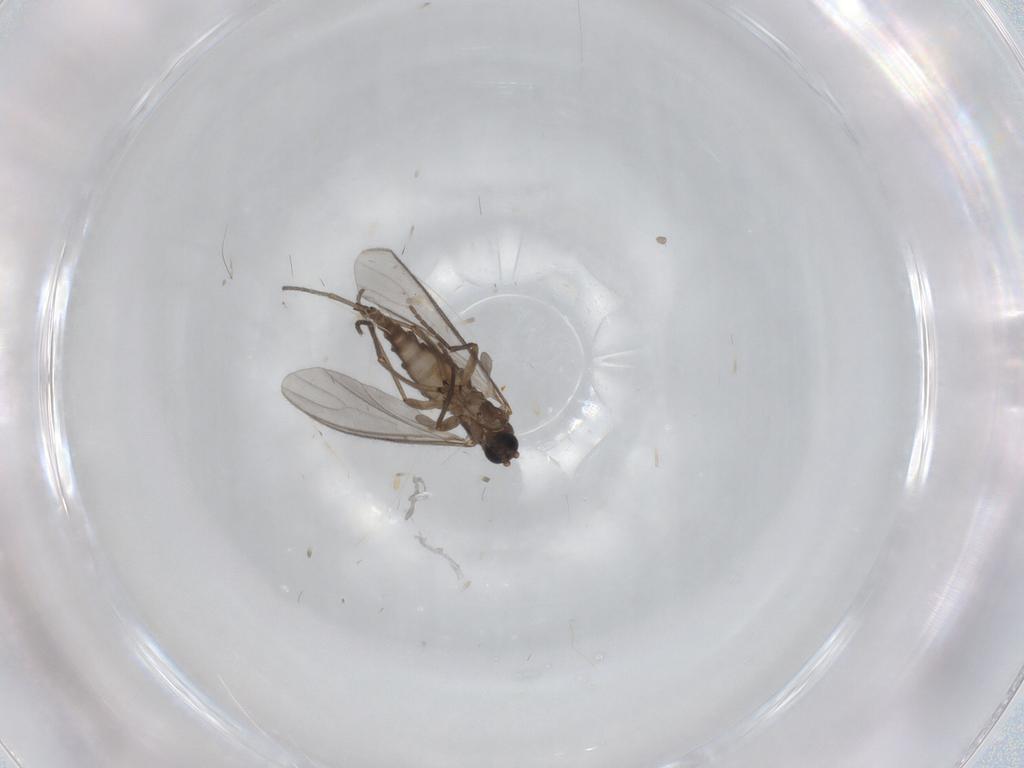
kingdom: Animalia
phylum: Arthropoda
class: Insecta
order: Diptera
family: Sciaridae
